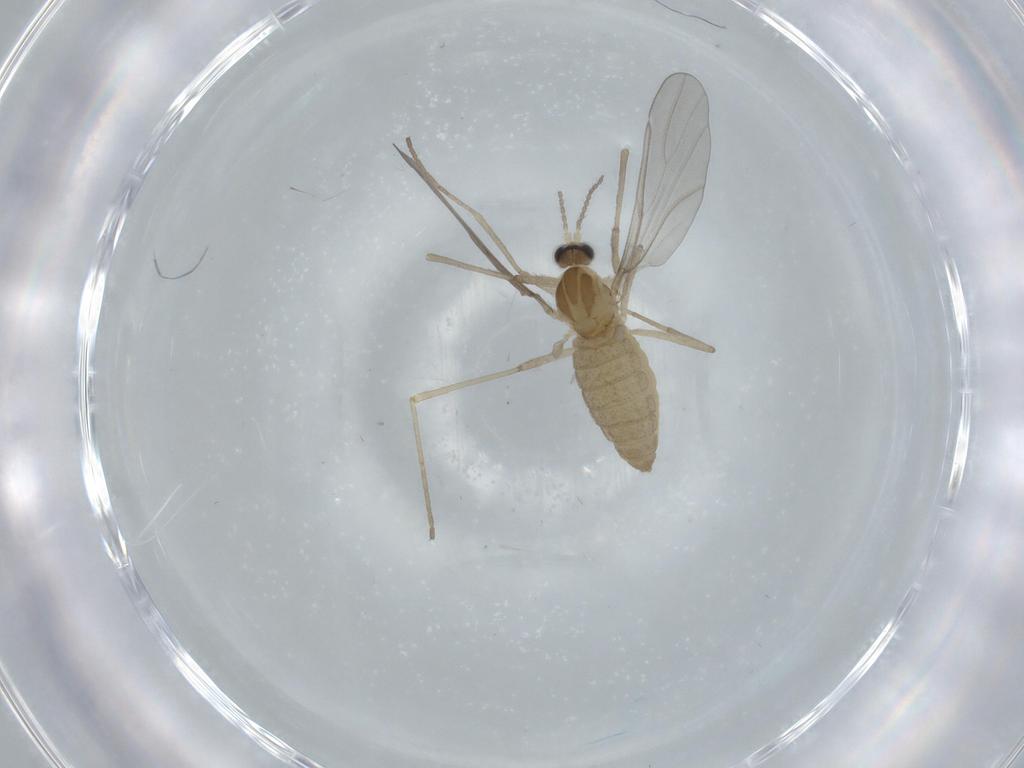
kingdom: Animalia
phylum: Arthropoda
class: Insecta
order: Diptera
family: Cecidomyiidae
